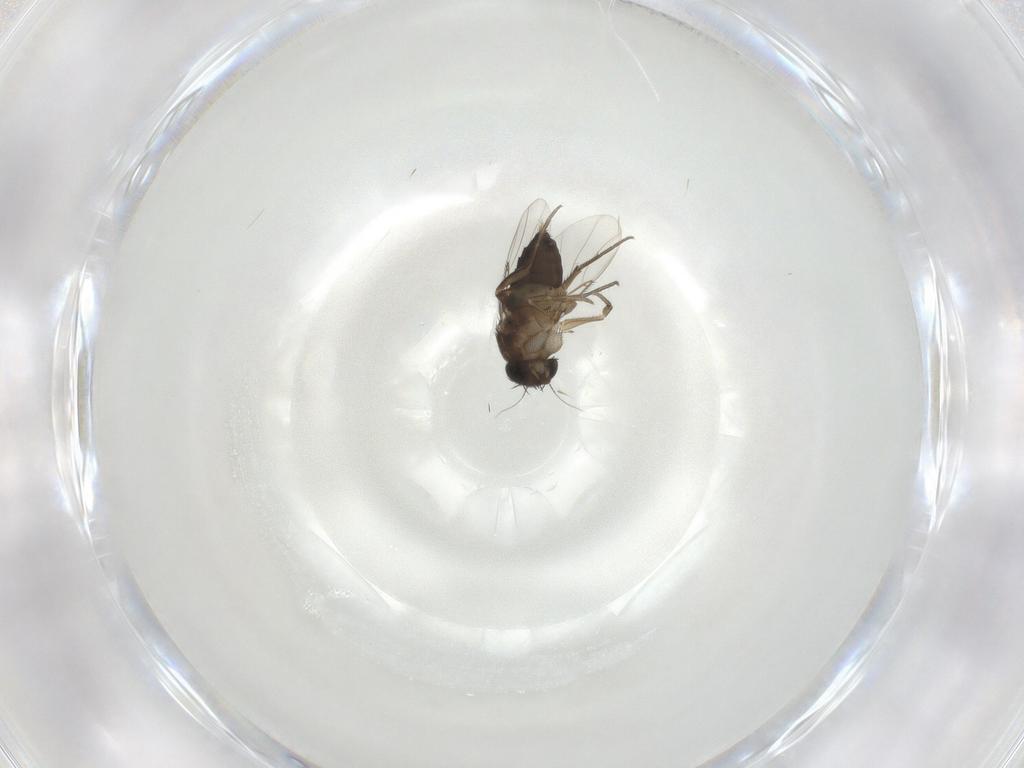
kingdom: Animalia
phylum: Arthropoda
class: Insecta
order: Diptera
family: Phoridae
